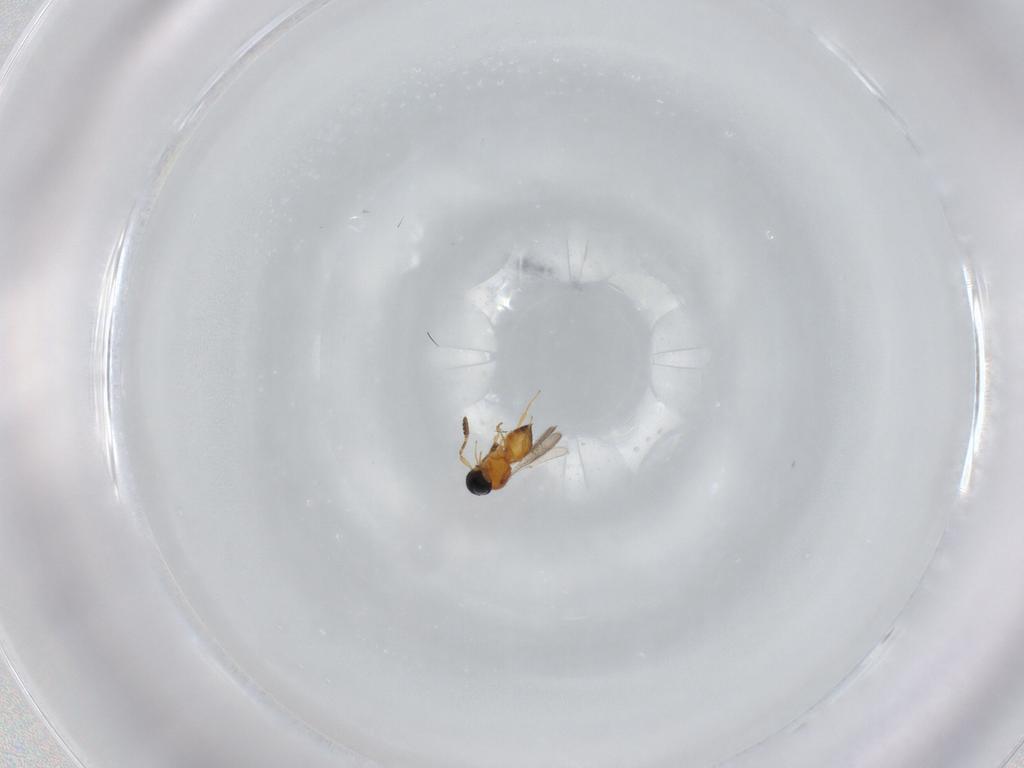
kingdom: Animalia
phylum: Arthropoda
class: Insecta
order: Hymenoptera
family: Scelionidae
